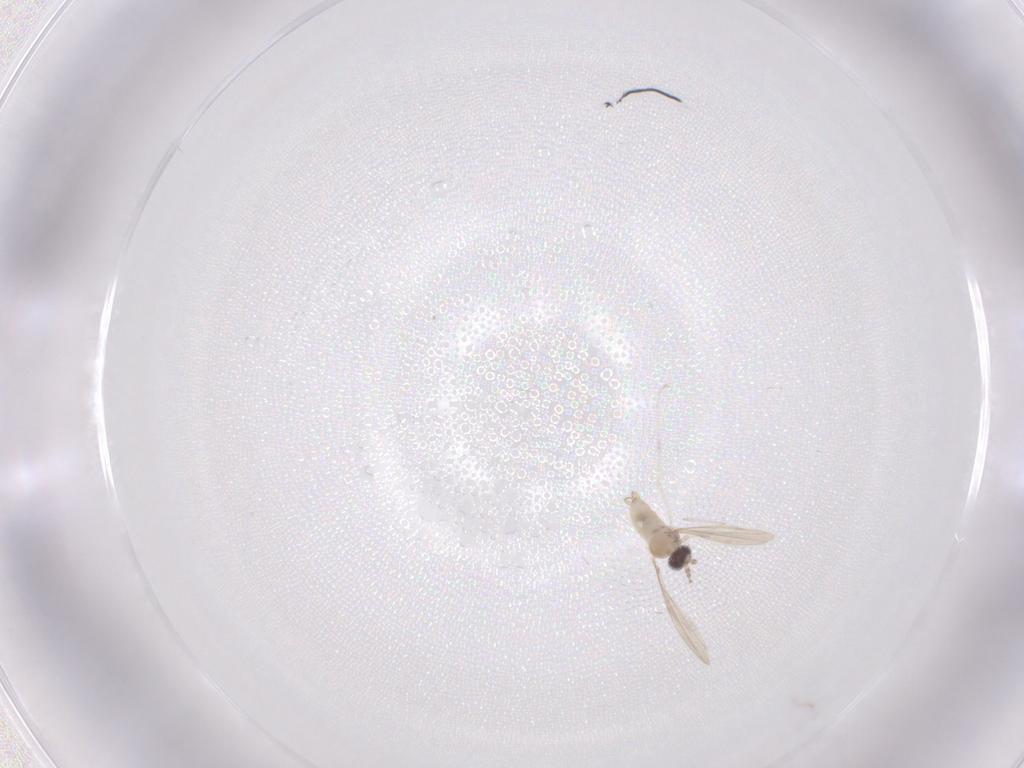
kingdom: Animalia
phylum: Arthropoda
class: Insecta
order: Diptera
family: Cecidomyiidae
